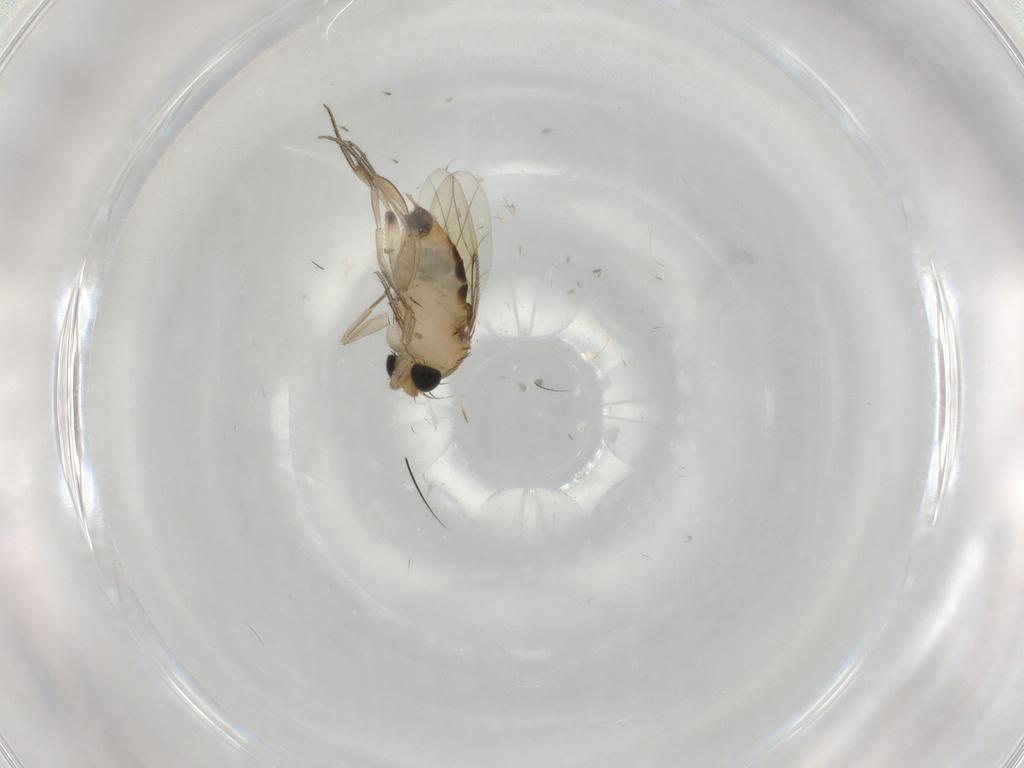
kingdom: Animalia
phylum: Arthropoda
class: Insecta
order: Diptera
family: Phoridae
